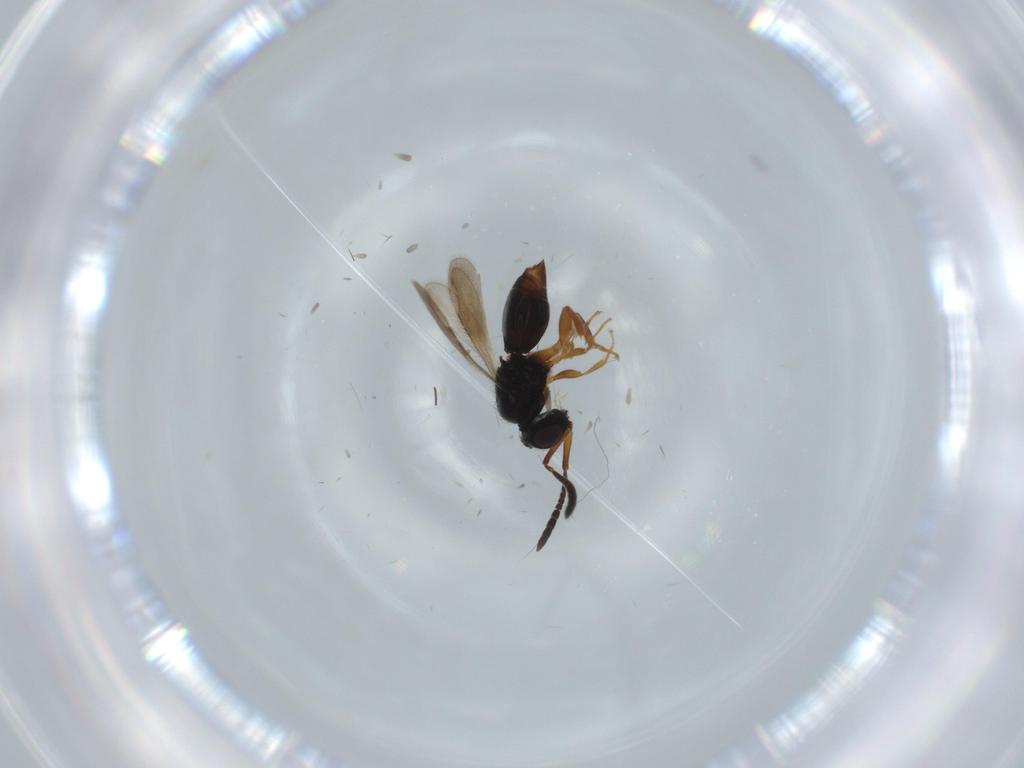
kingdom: Animalia
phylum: Arthropoda
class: Insecta
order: Hymenoptera
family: Ceraphronidae
